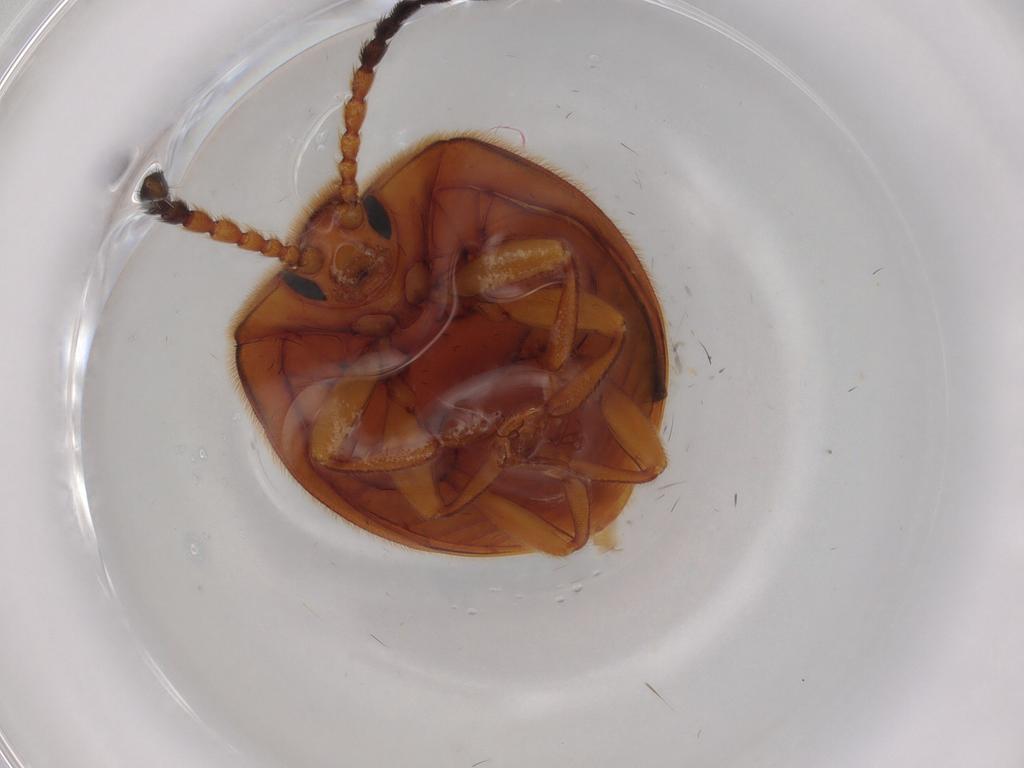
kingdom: Animalia
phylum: Arthropoda
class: Insecta
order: Coleoptera
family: Endomychidae
